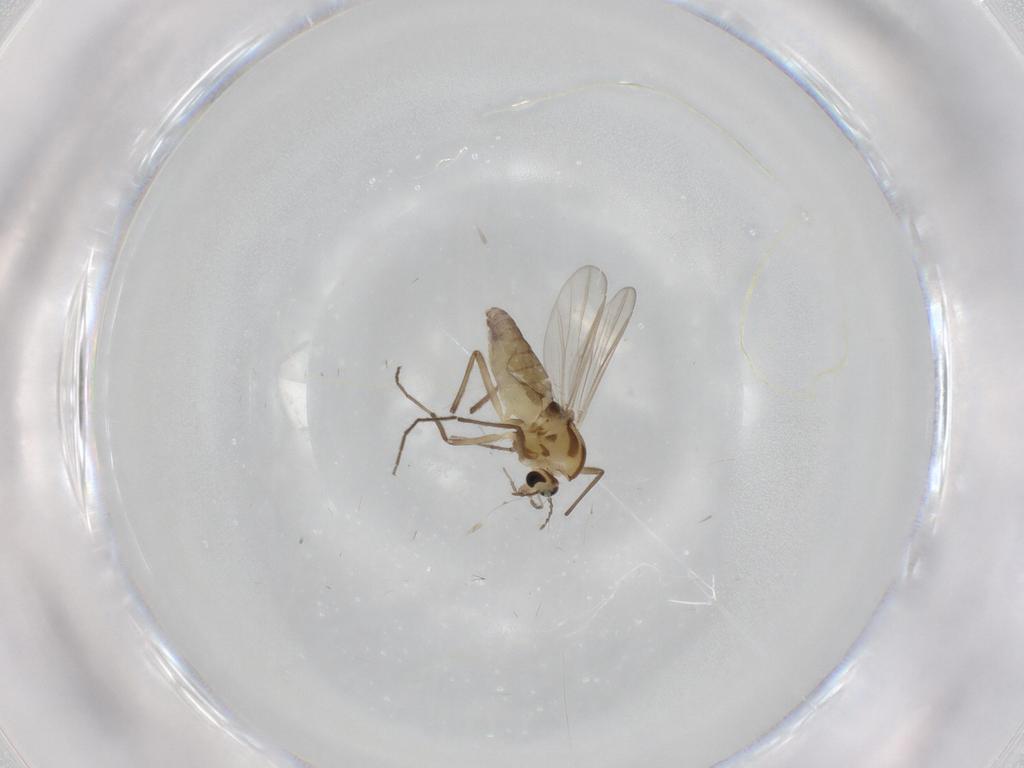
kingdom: Animalia
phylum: Arthropoda
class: Insecta
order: Diptera
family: Chironomidae
